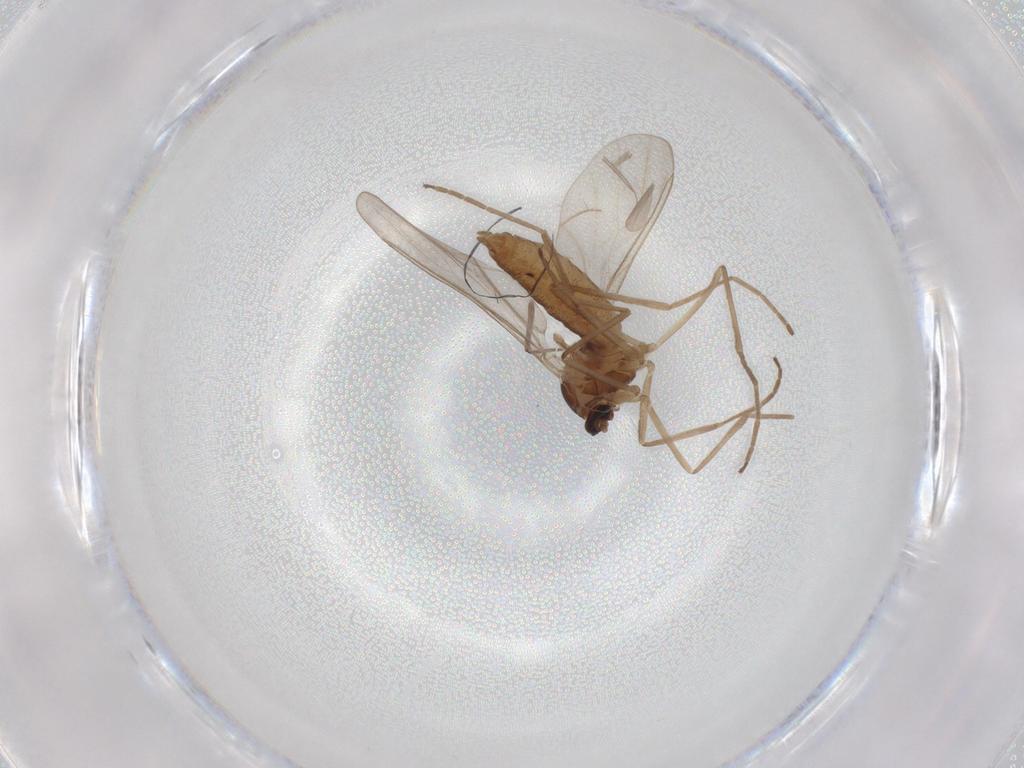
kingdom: Animalia
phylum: Arthropoda
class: Insecta
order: Diptera
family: Cecidomyiidae
